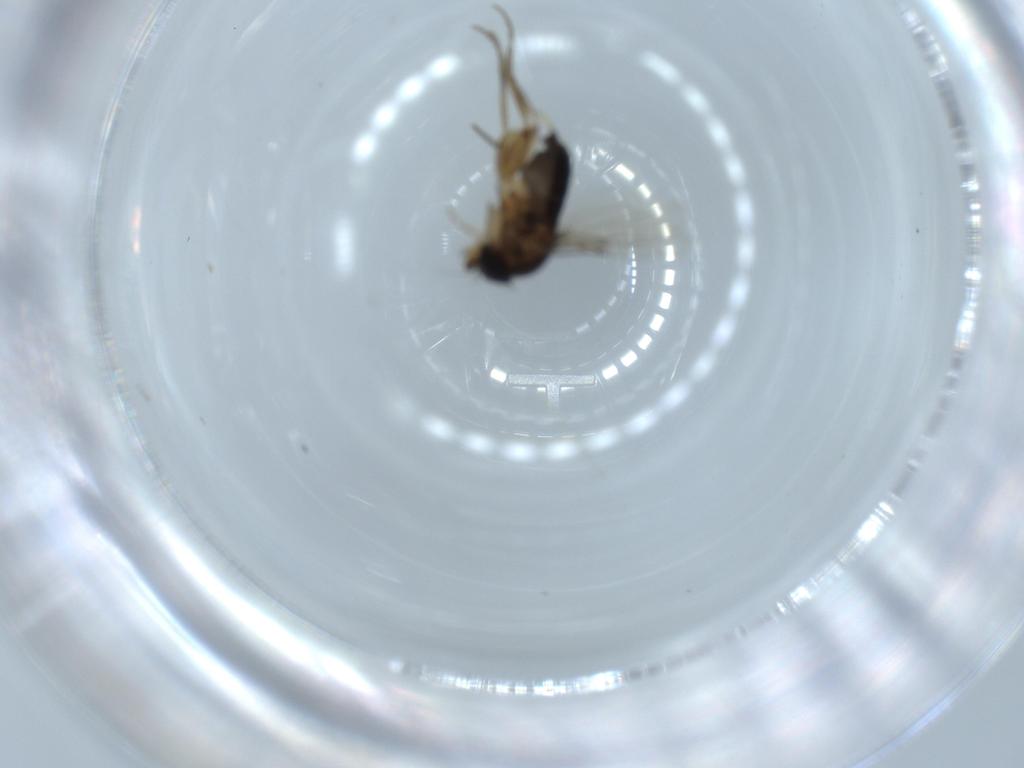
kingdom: Animalia
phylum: Arthropoda
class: Insecta
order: Diptera
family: Phoridae
